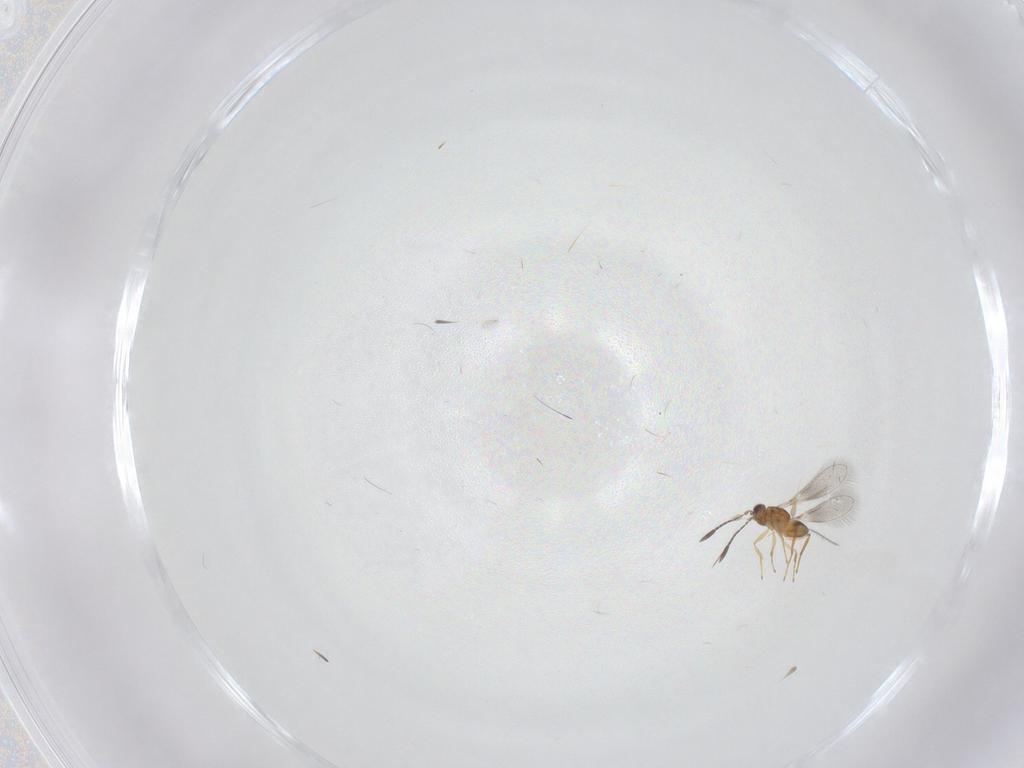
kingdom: Animalia
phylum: Arthropoda
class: Insecta
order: Hymenoptera
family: Mymaridae
